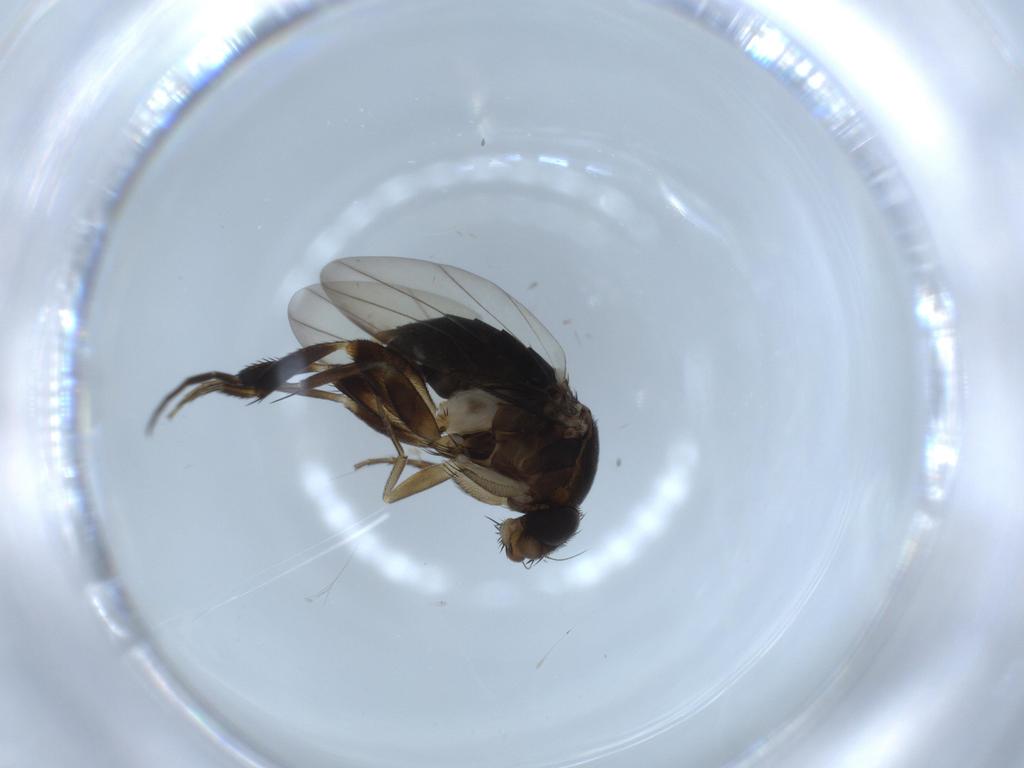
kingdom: Animalia
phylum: Arthropoda
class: Insecta
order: Diptera
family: Phoridae
